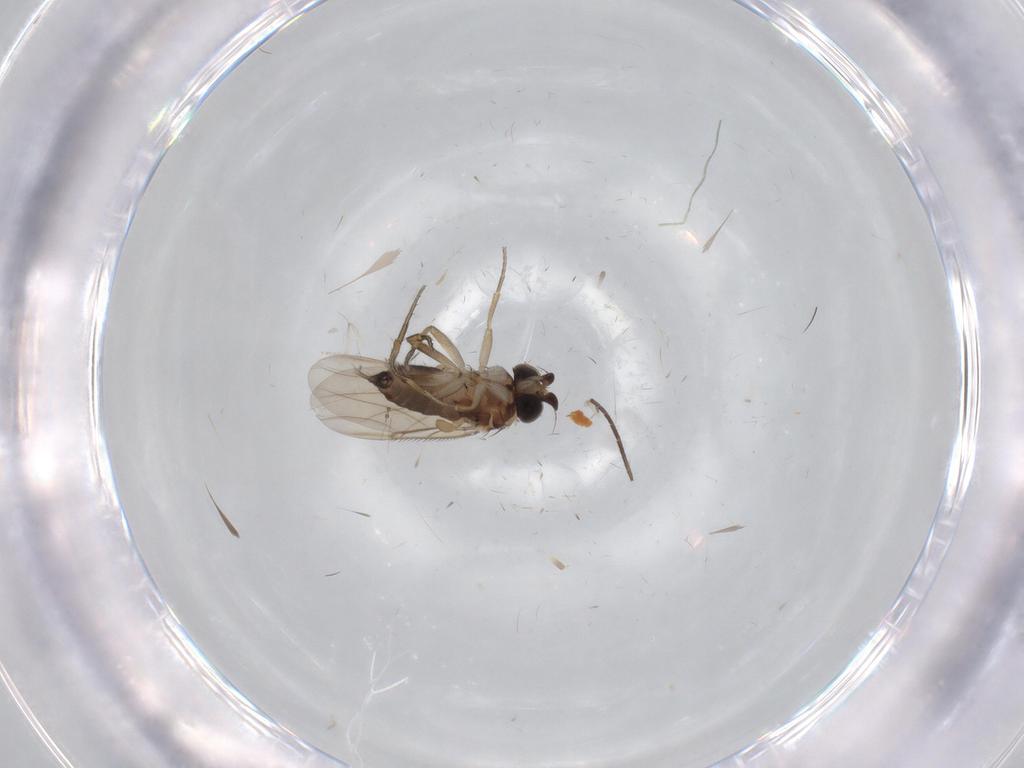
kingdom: Animalia
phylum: Arthropoda
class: Insecta
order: Diptera
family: Phoridae
